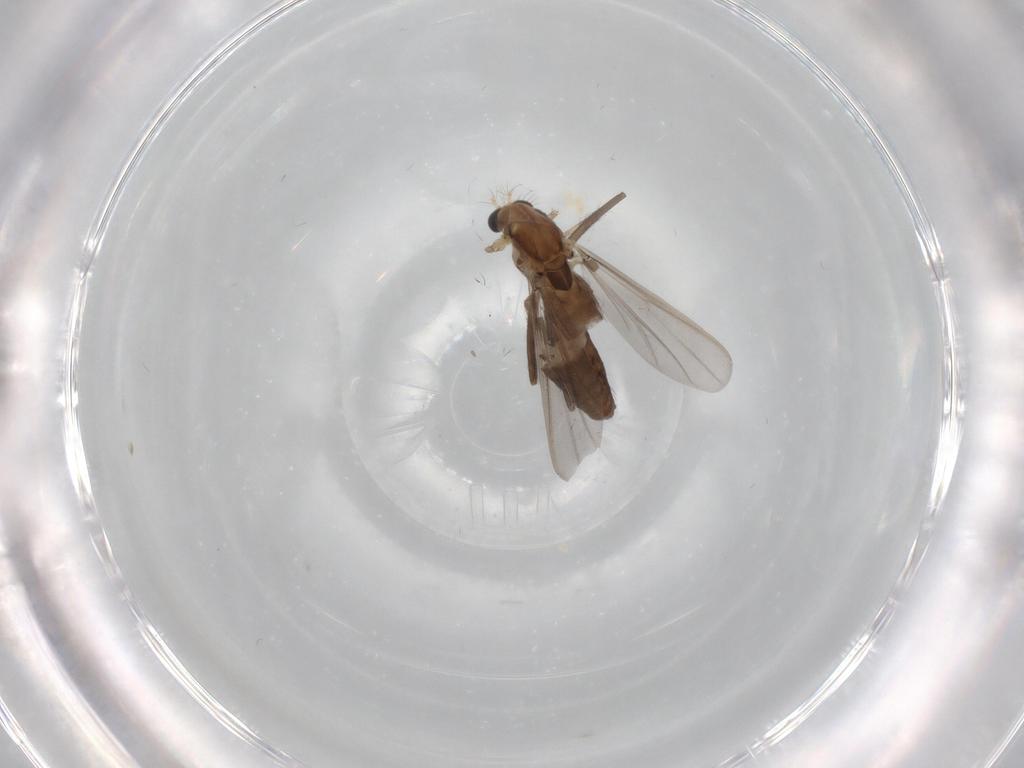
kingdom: Animalia
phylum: Arthropoda
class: Insecta
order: Diptera
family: Chironomidae
